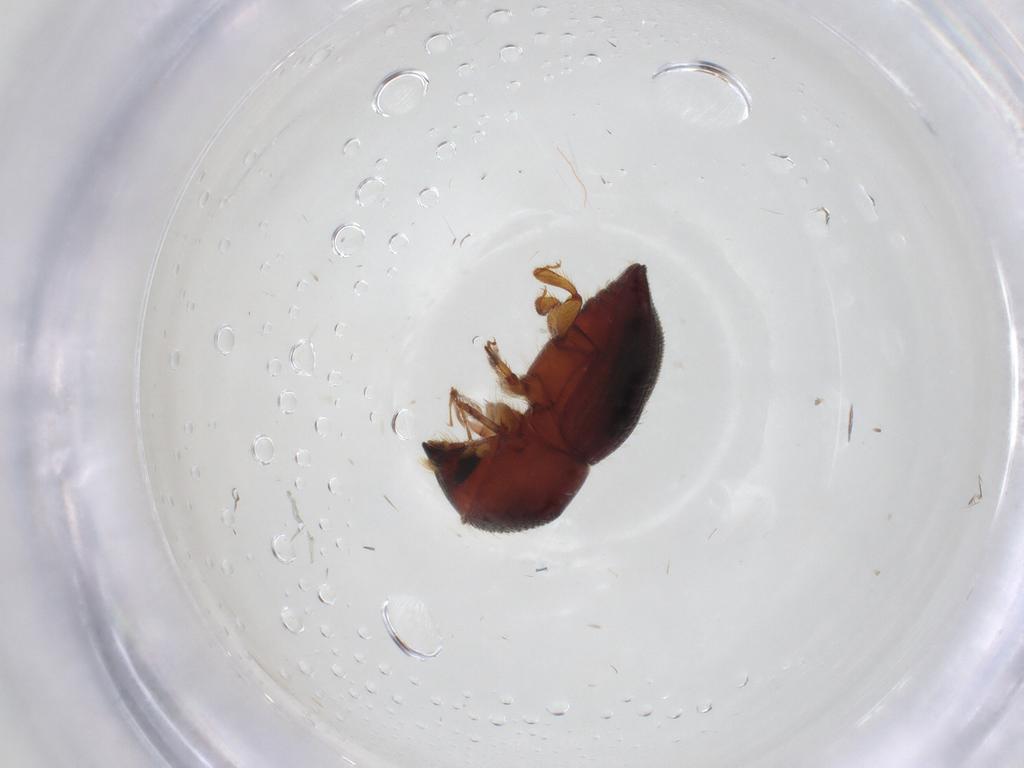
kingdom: Animalia
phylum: Arthropoda
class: Insecta
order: Coleoptera
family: Curculionidae
